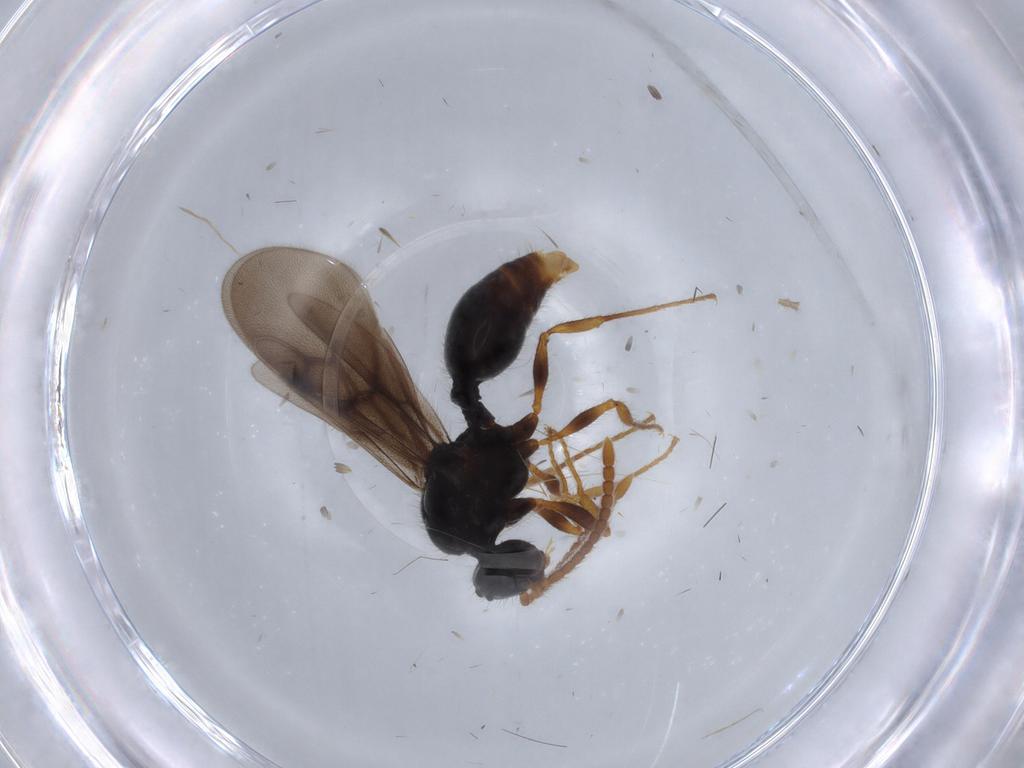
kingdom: Animalia
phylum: Arthropoda
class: Insecta
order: Hymenoptera
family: Formicidae
